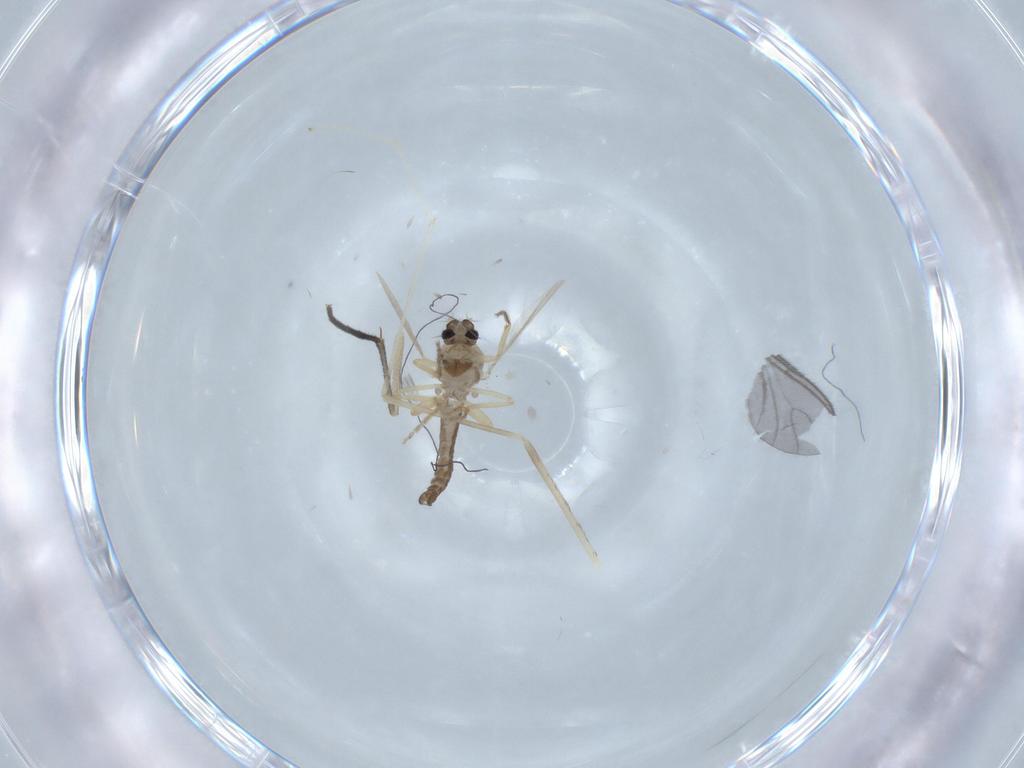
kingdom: Animalia
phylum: Arthropoda
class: Insecta
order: Diptera
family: Ceratopogonidae
